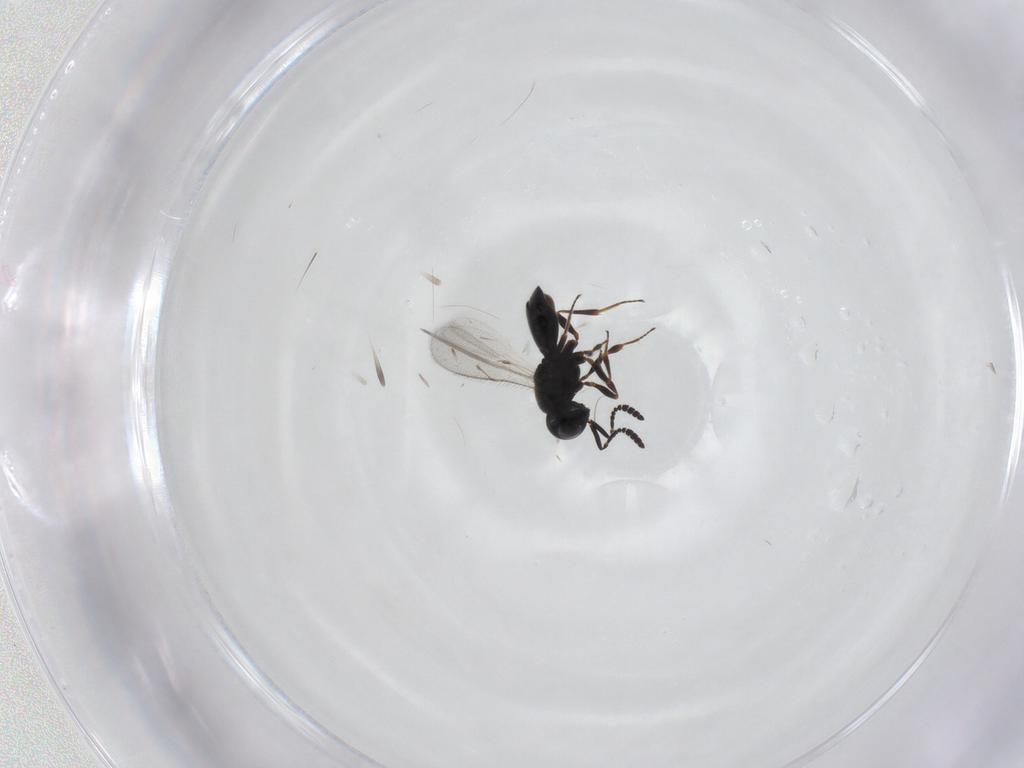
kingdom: Animalia
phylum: Arthropoda
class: Insecta
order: Hymenoptera
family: Scelionidae
